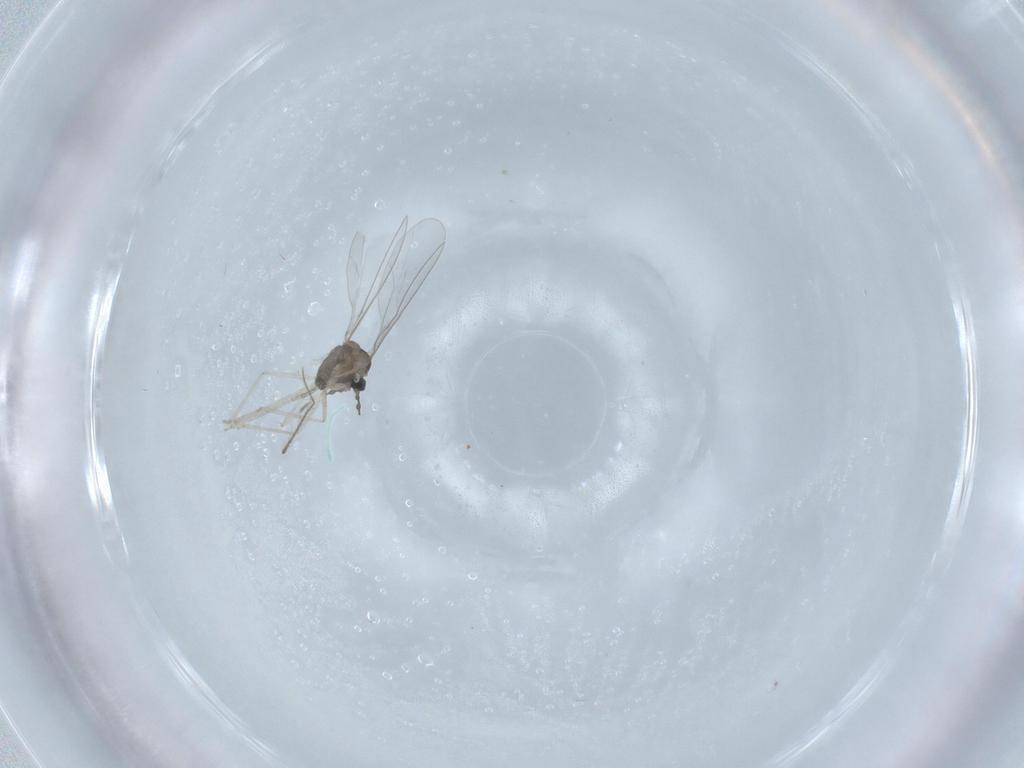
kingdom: Animalia
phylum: Arthropoda
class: Insecta
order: Diptera
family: Cecidomyiidae
